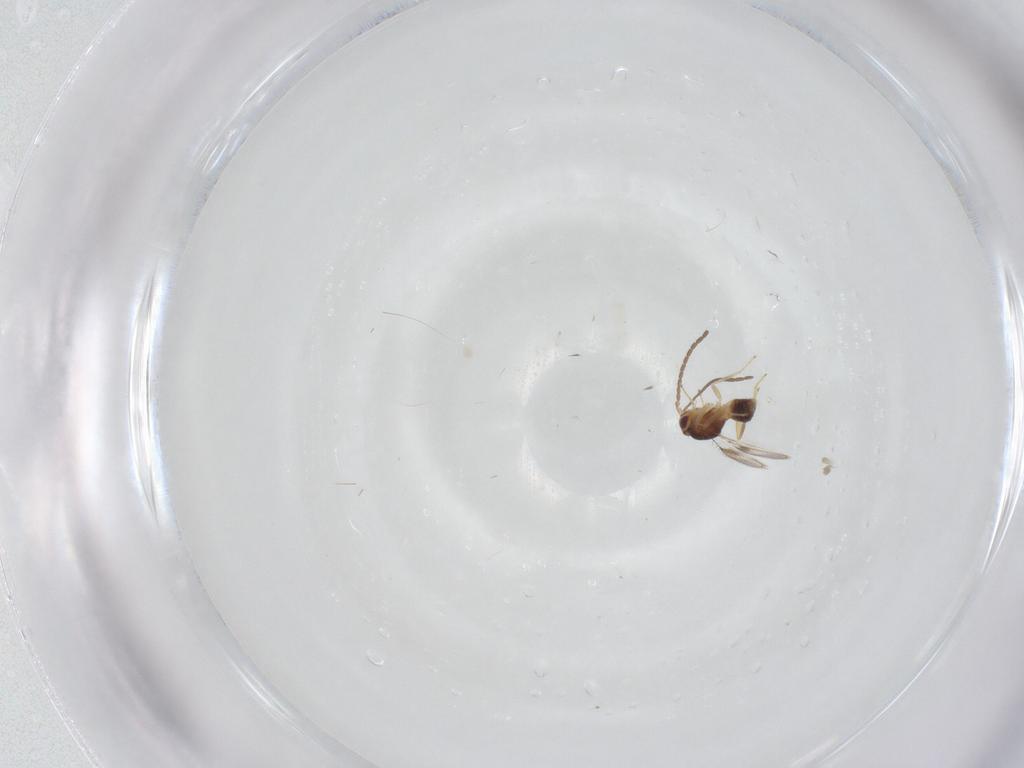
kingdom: Animalia
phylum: Arthropoda
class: Insecta
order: Hymenoptera
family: Mymaridae
